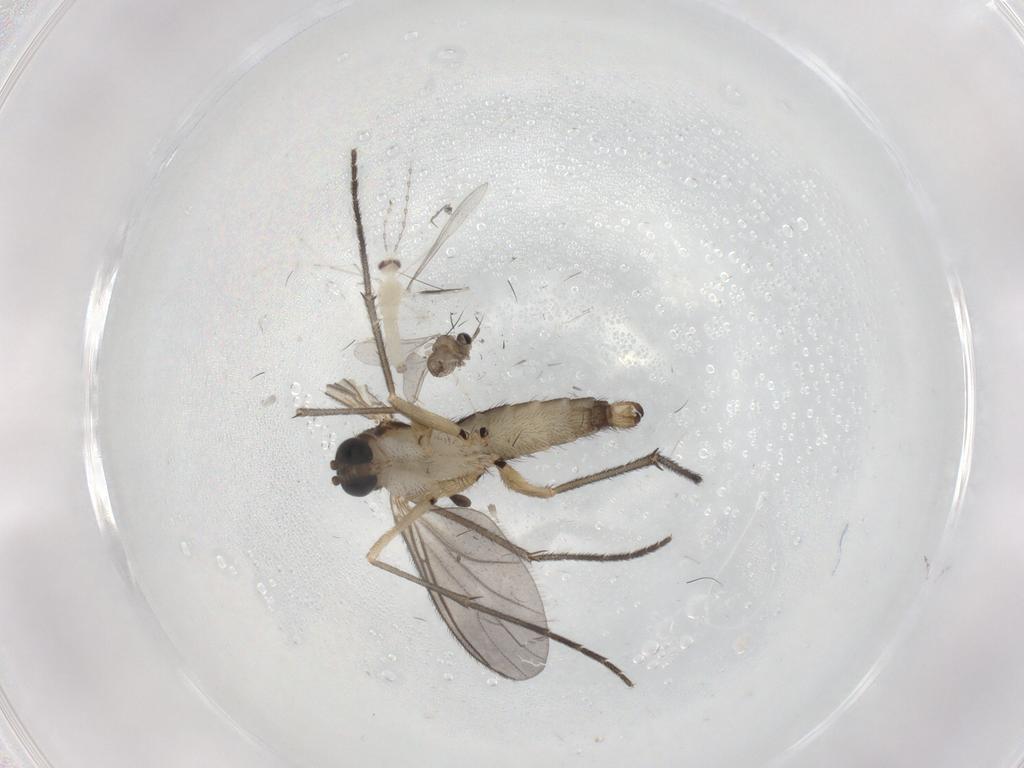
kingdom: Animalia
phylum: Arthropoda
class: Insecta
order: Diptera
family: Sciaridae
